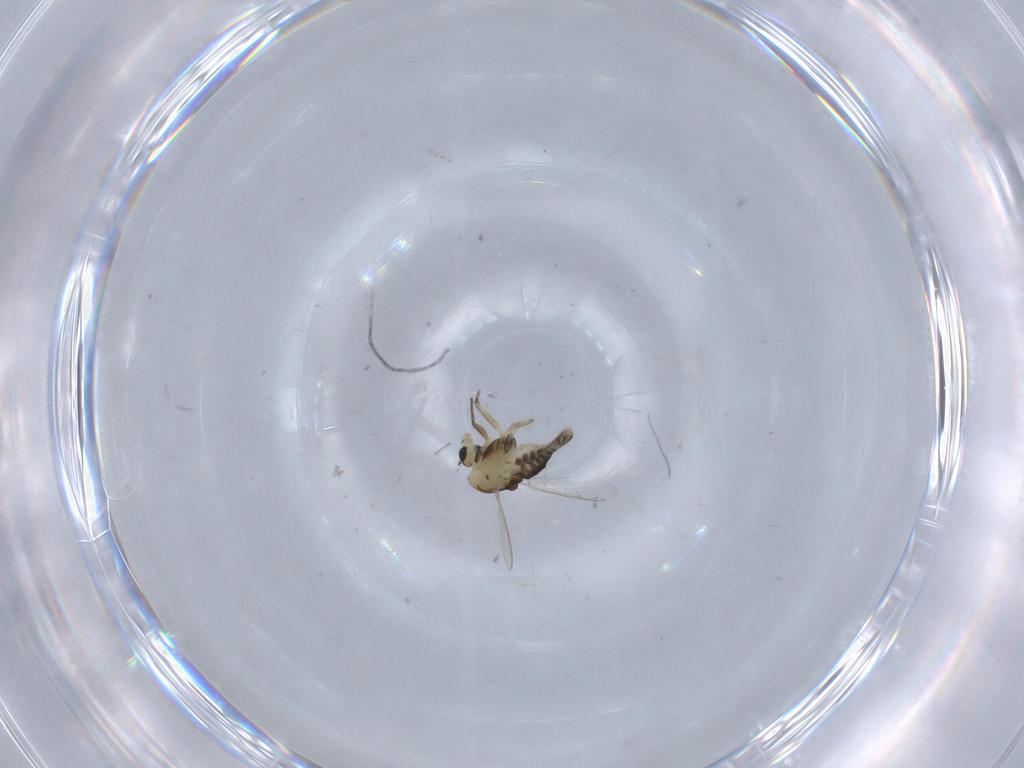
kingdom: Animalia
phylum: Arthropoda
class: Insecta
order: Diptera
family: Chironomidae
